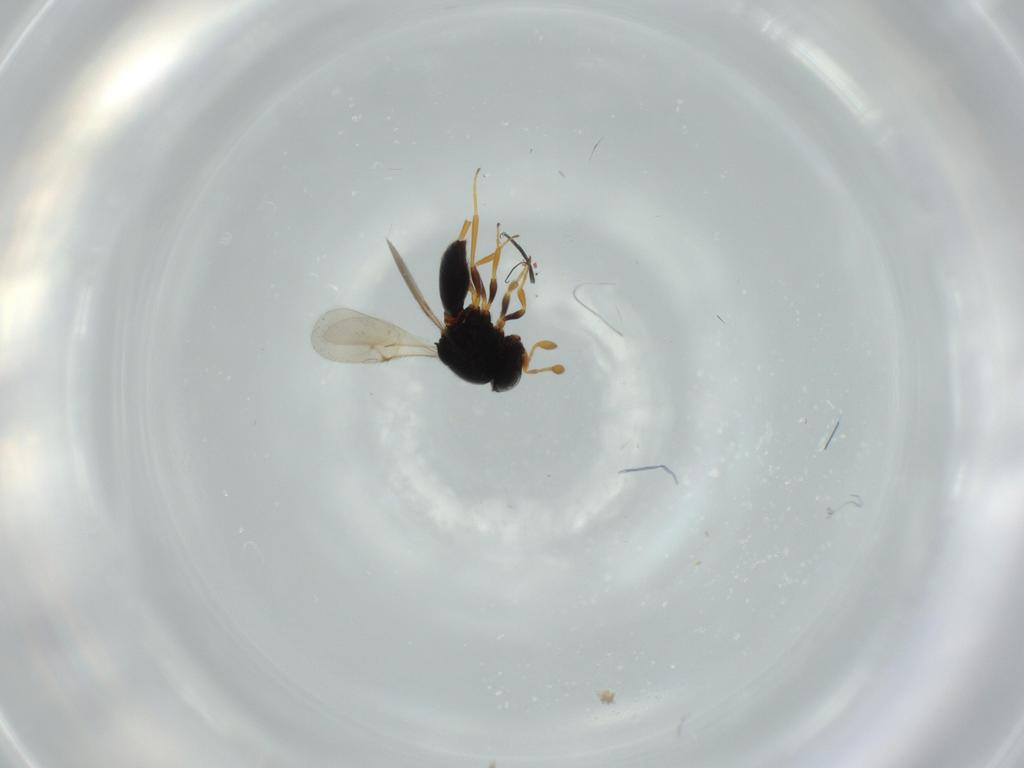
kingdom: Animalia
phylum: Arthropoda
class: Insecta
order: Hymenoptera
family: Scelionidae
